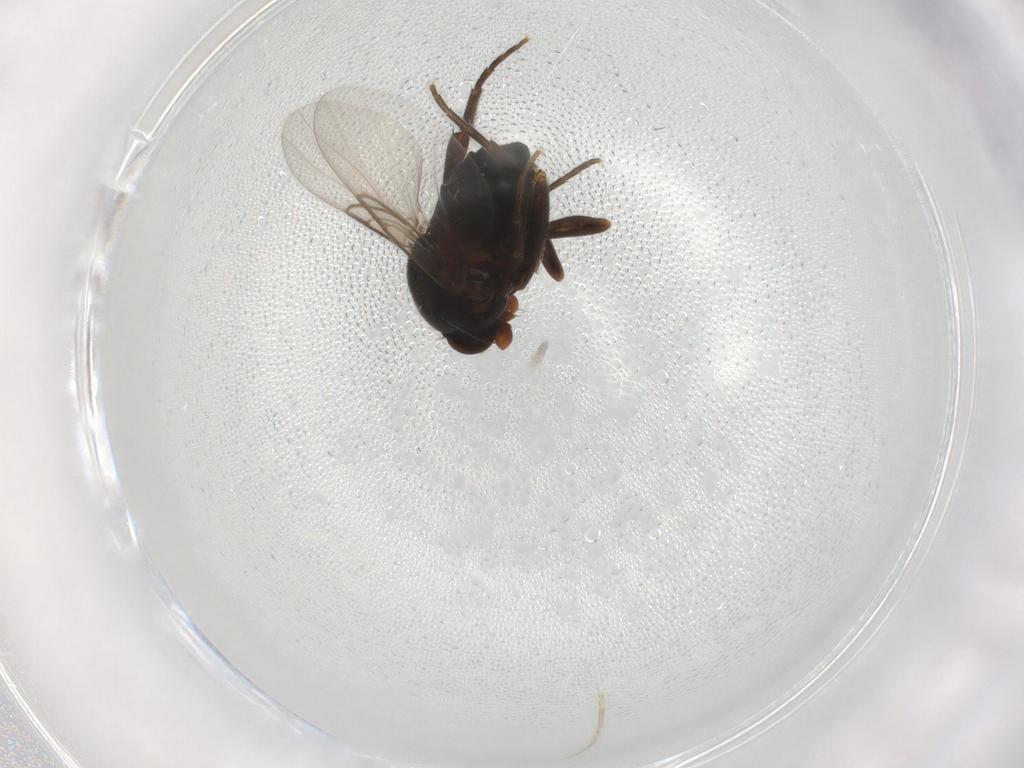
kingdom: Animalia
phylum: Arthropoda
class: Insecta
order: Diptera
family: Phoridae
